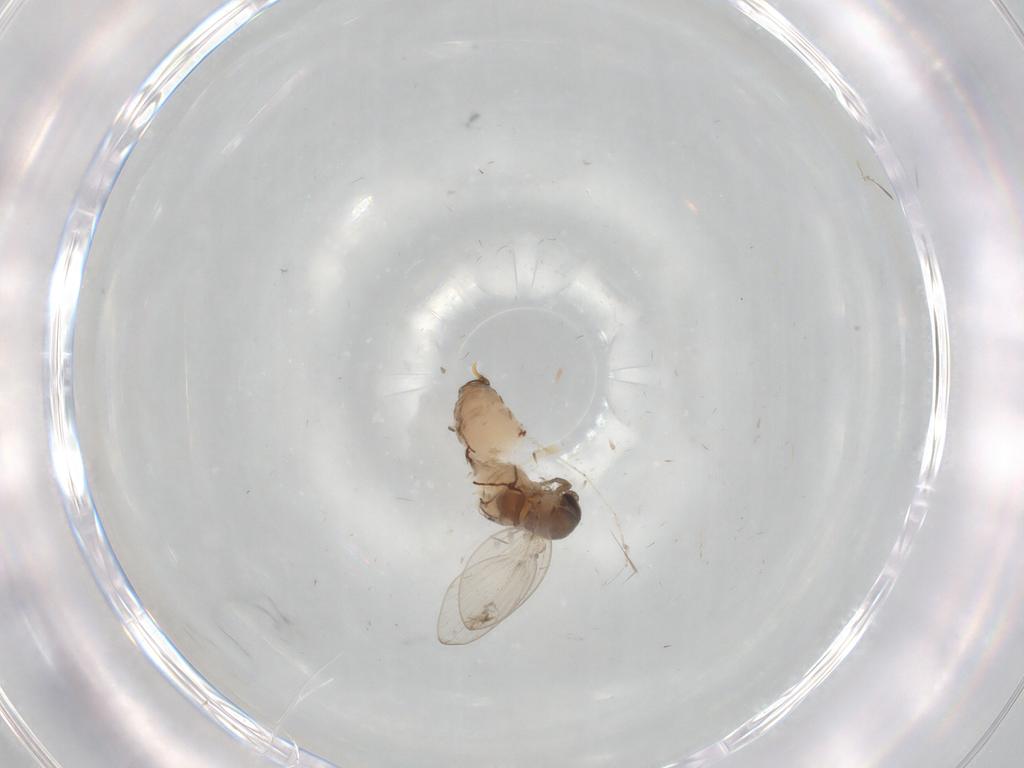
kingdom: Animalia
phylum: Arthropoda
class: Insecta
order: Diptera
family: Psychodidae
